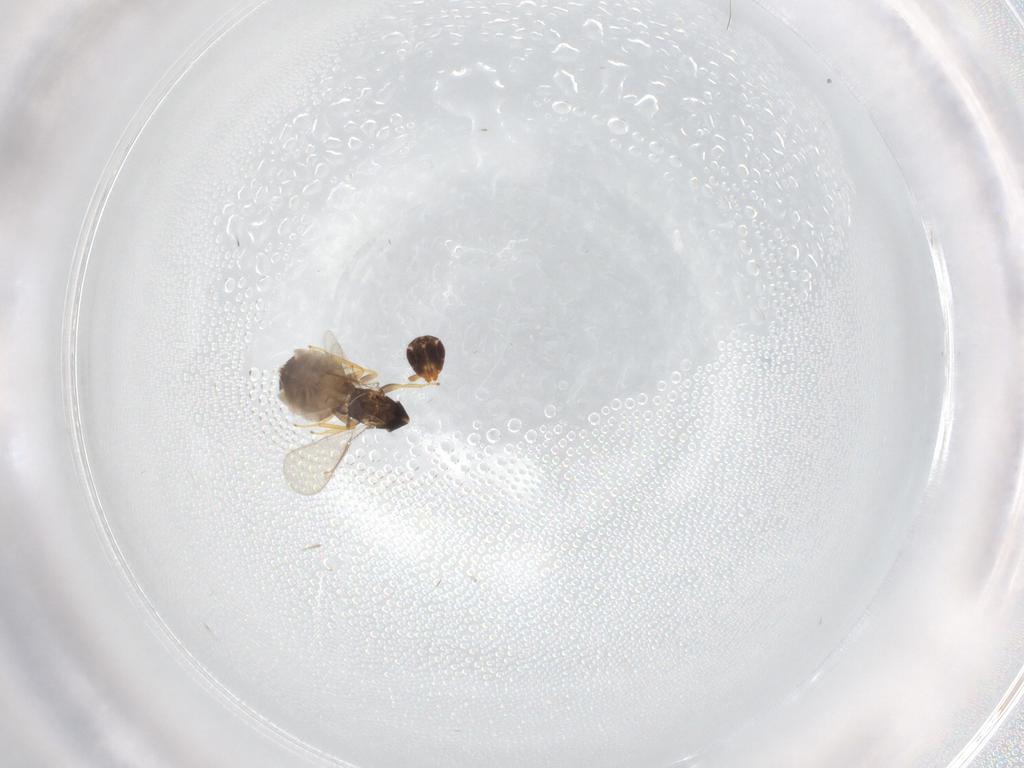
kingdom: Animalia
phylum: Arthropoda
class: Insecta
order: Hymenoptera
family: Eulophidae
